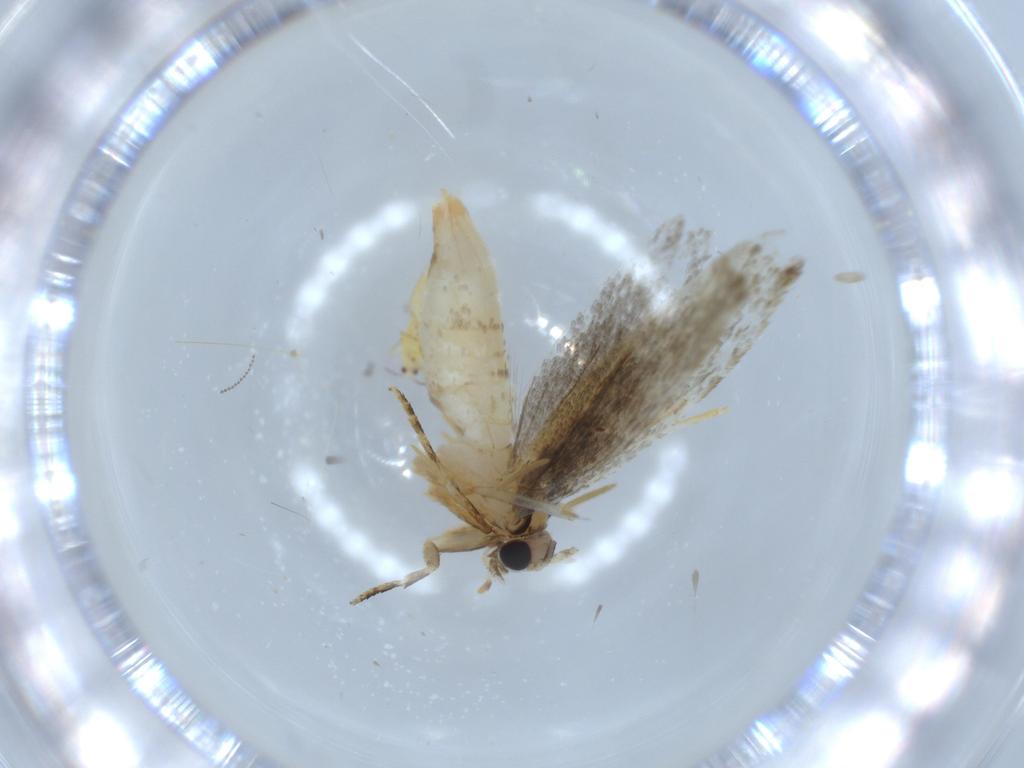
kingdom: Animalia
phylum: Arthropoda
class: Insecta
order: Lepidoptera
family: Tineidae
